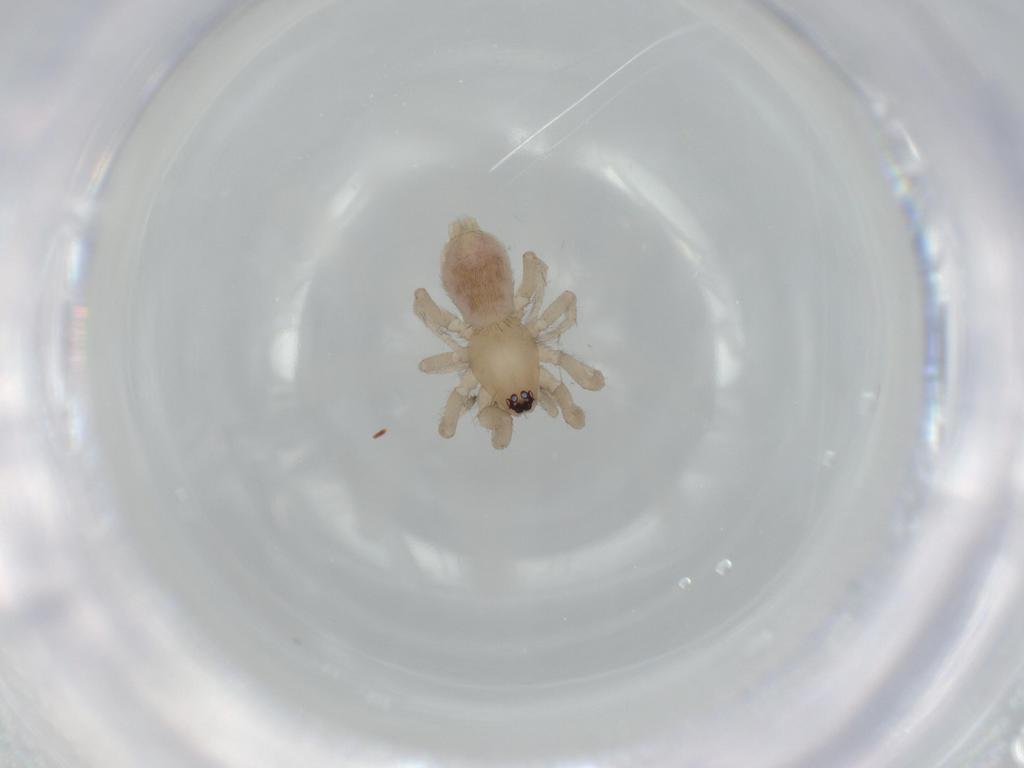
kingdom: Animalia
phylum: Arthropoda
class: Arachnida
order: Araneae
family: Gnaphosidae
